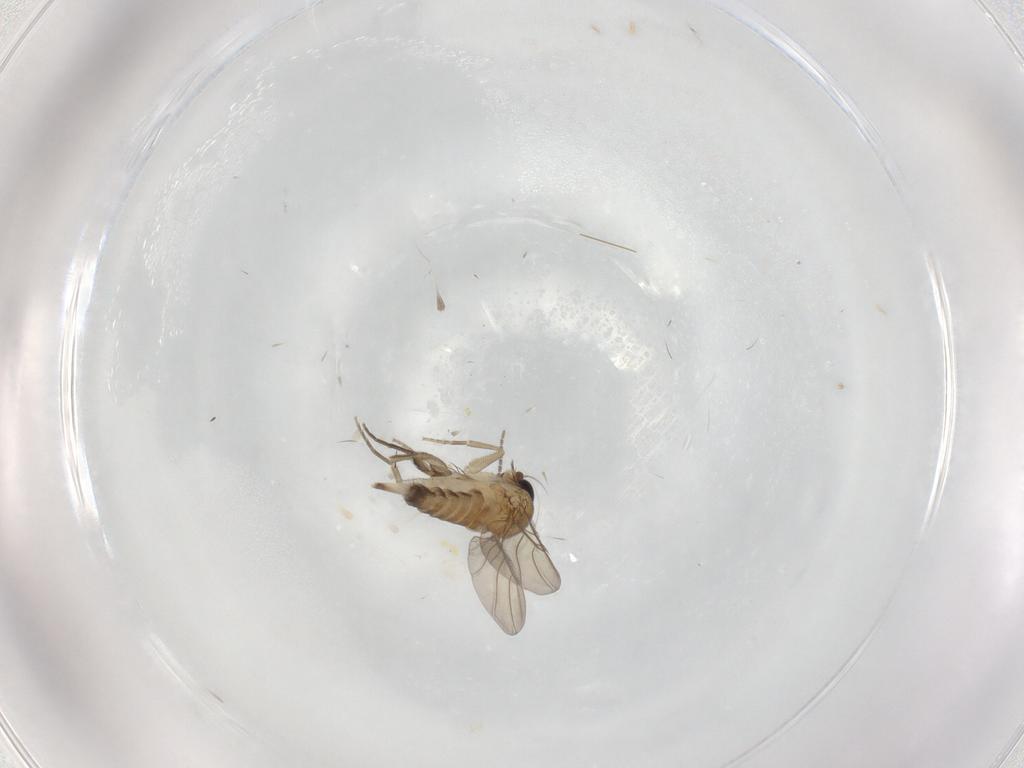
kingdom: Animalia
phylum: Arthropoda
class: Insecta
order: Diptera
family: Phoridae
